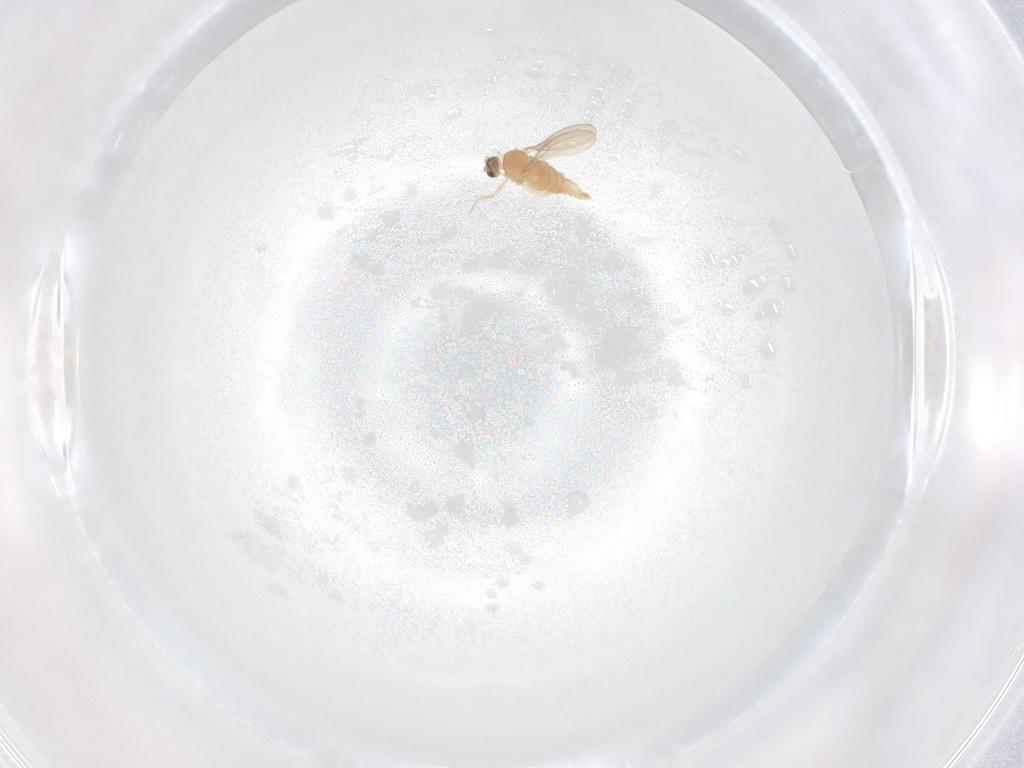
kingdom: Animalia
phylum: Arthropoda
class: Insecta
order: Diptera
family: Cecidomyiidae
